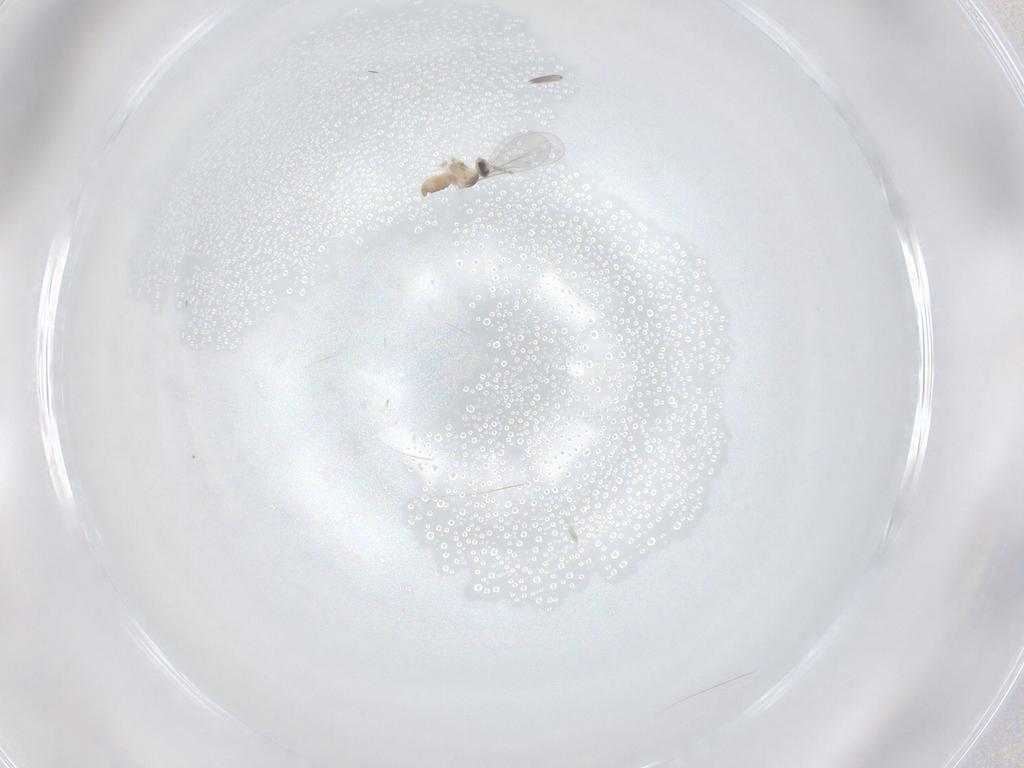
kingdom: Animalia
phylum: Arthropoda
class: Insecta
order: Diptera
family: Cecidomyiidae
